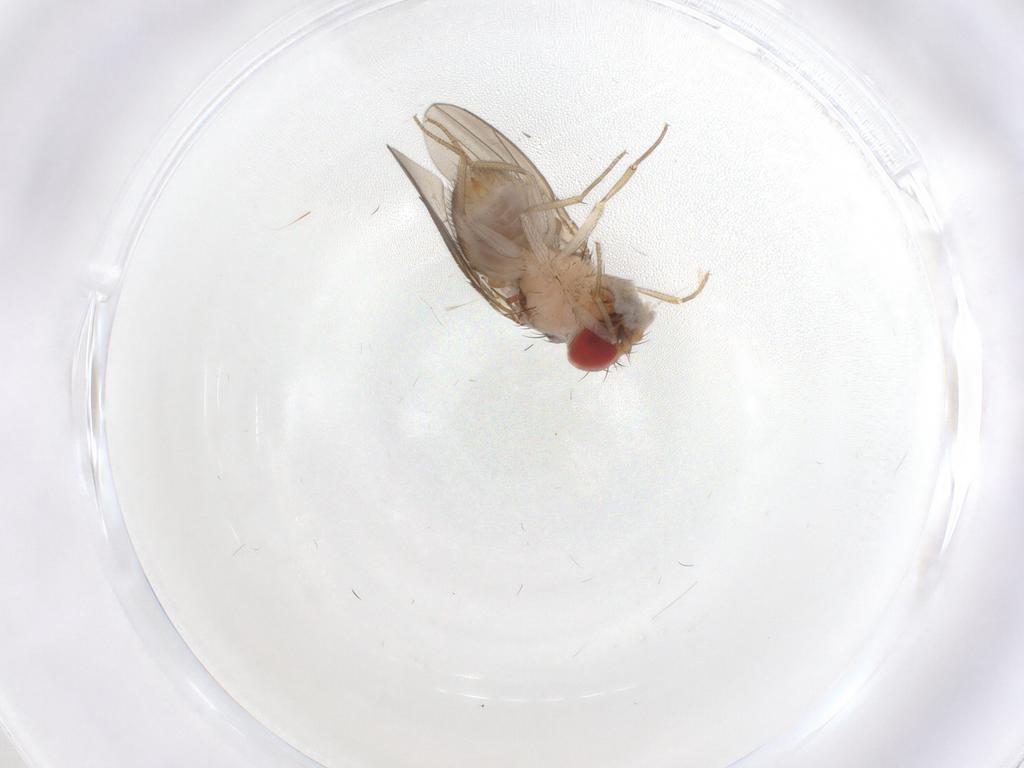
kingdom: Animalia
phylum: Arthropoda
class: Insecta
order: Diptera
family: Drosophilidae
